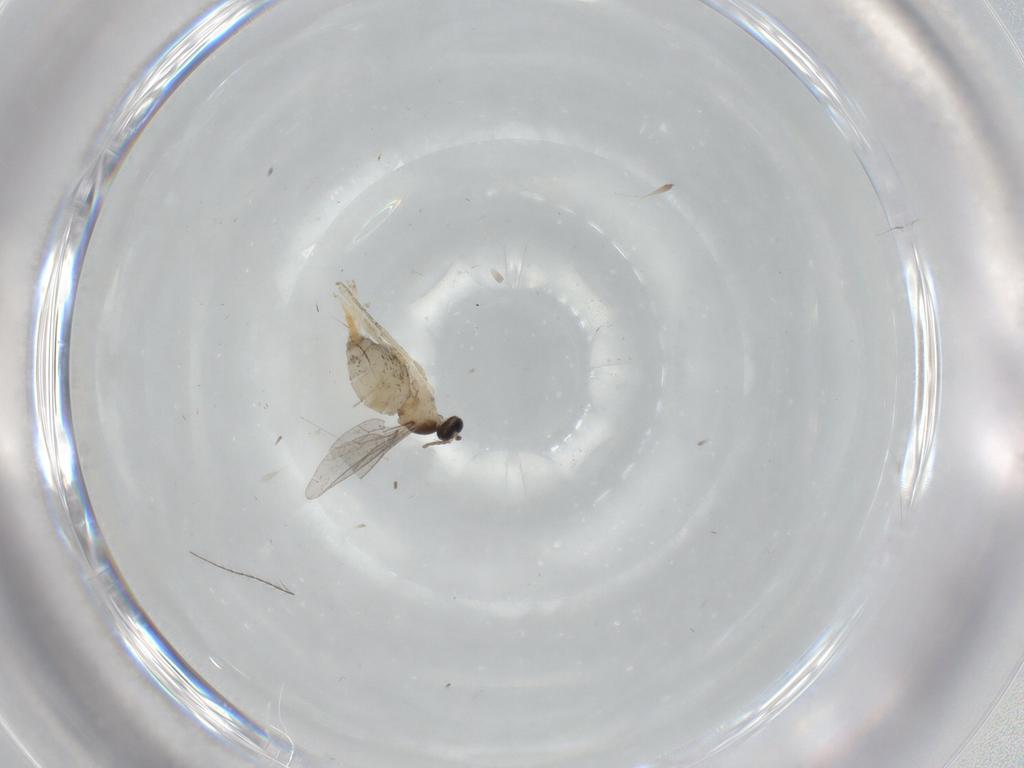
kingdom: Animalia
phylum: Arthropoda
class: Insecta
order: Diptera
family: Cecidomyiidae
